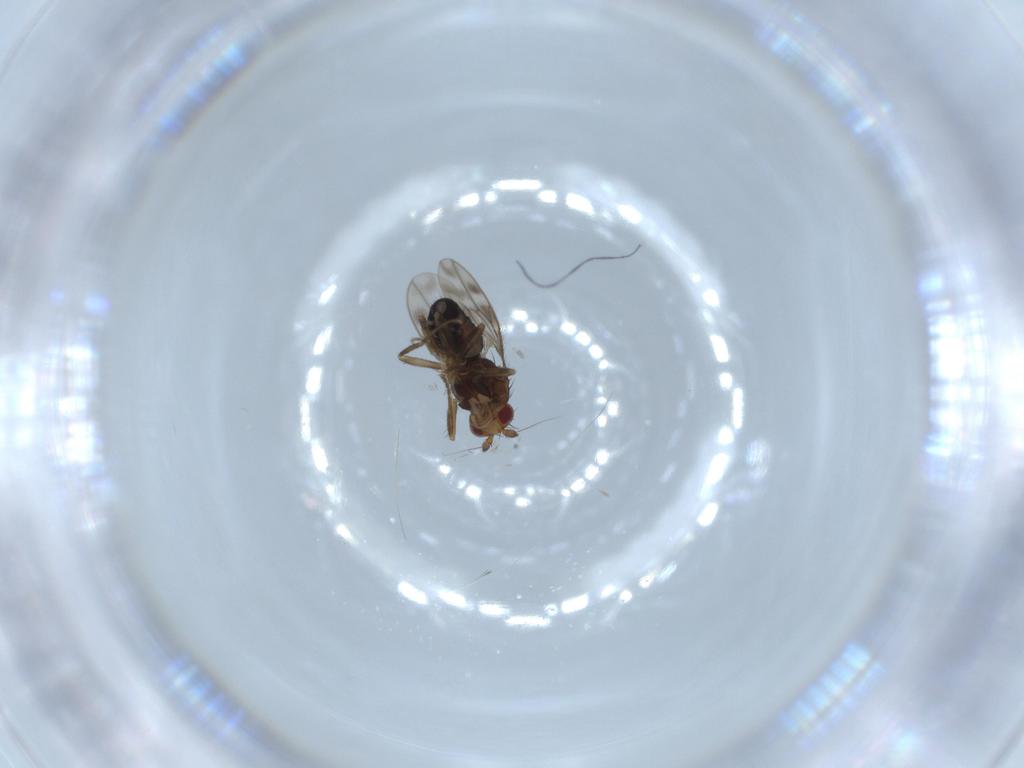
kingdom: Animalia
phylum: Arthropoda
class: Insecta
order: Diptera
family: Sphaeroceridae
